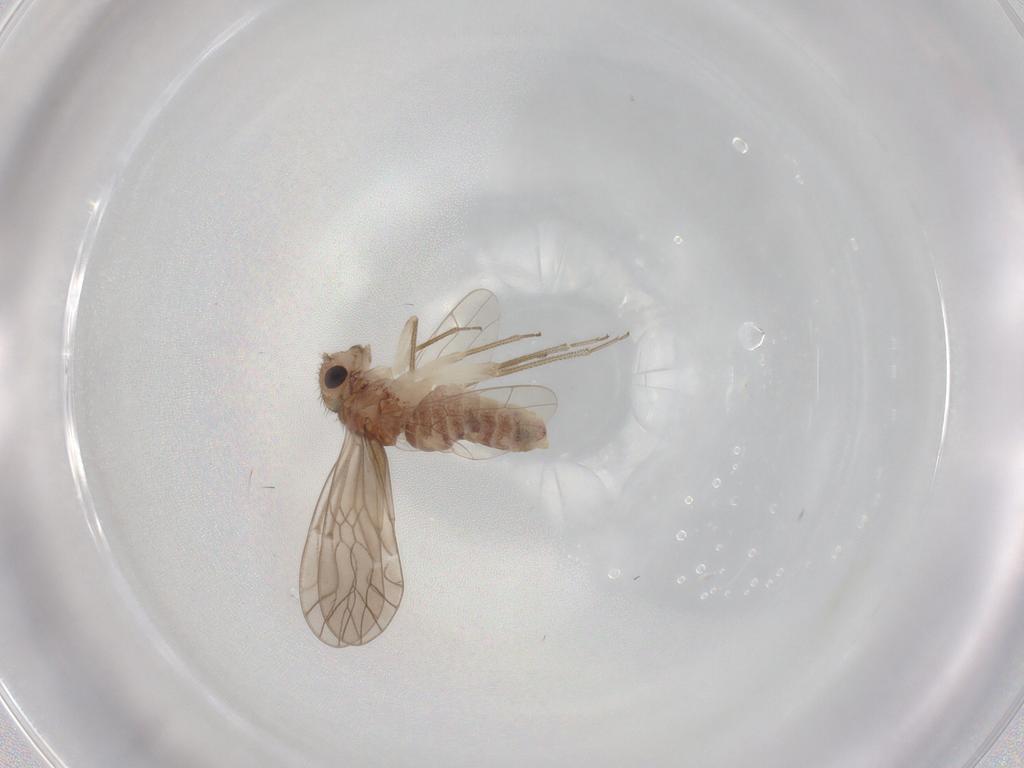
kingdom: Animalia
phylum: Arthropoda
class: Insecta
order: Psocodea
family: Caeciliusidae
